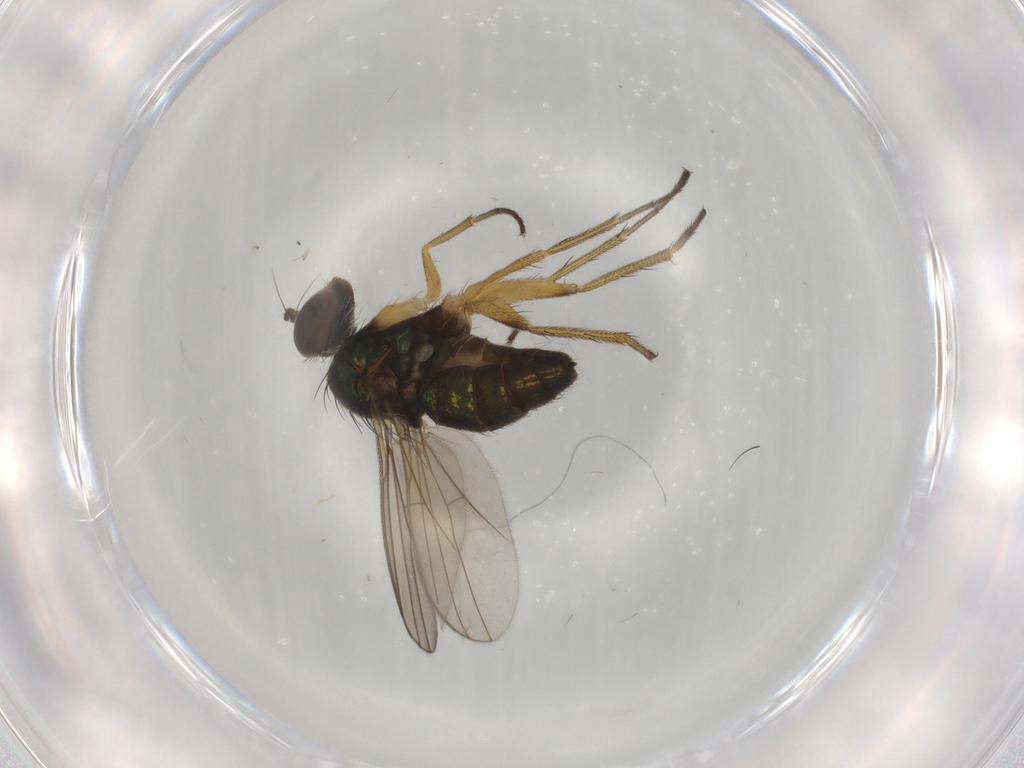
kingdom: Animalia
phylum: Arthropoda
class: Insecta
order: Diptera
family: Dolichopodidae
